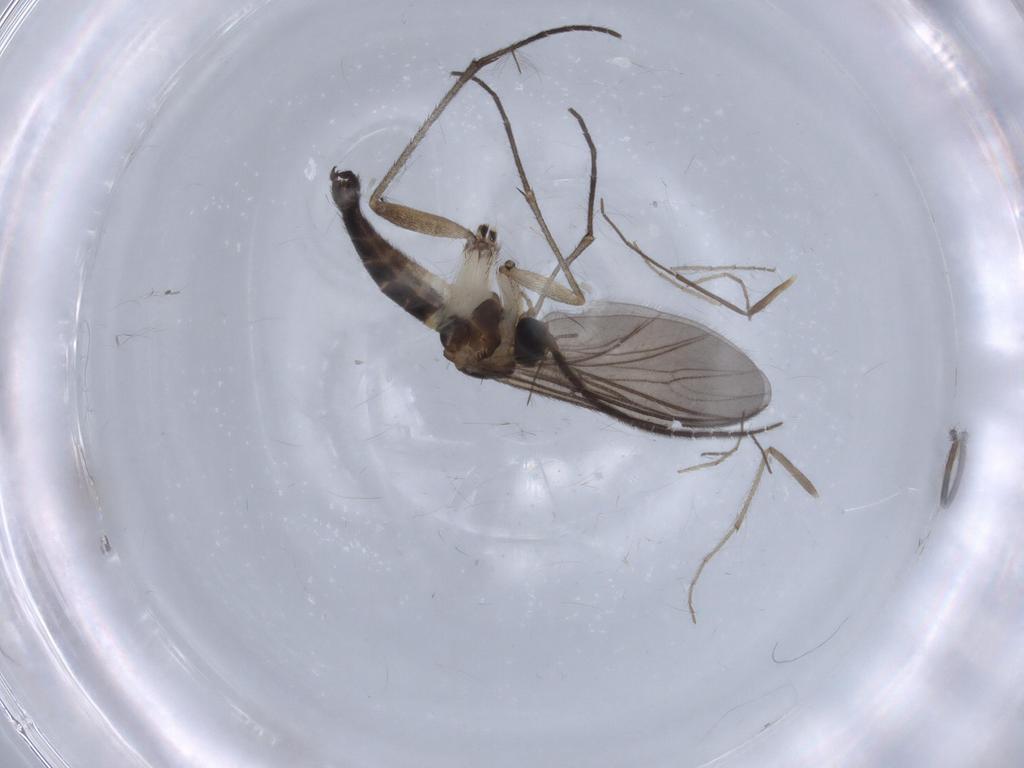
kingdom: Animalia
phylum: Arthropoda
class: Insecta
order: Diptera
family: Chironomidae
